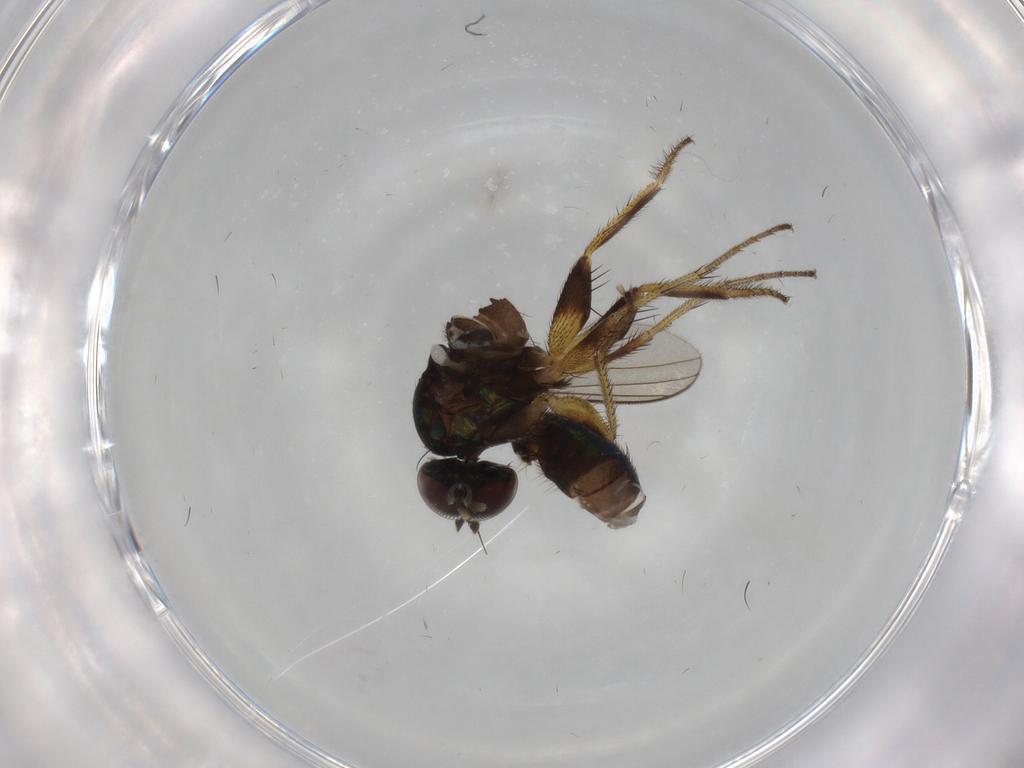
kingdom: Animalia
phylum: Arthropoda
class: Insecta
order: Diptera
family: Dolichopodidae
